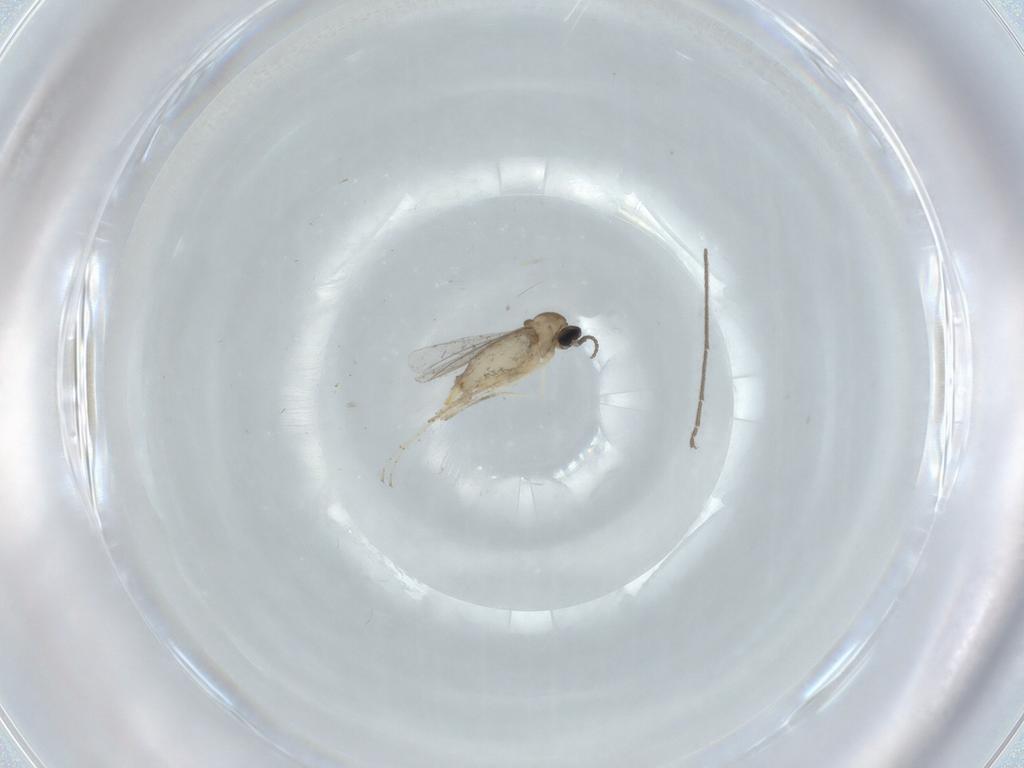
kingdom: Animalia
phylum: Arthropoda
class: Insecta
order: Diptera
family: Cecidomyiidae
